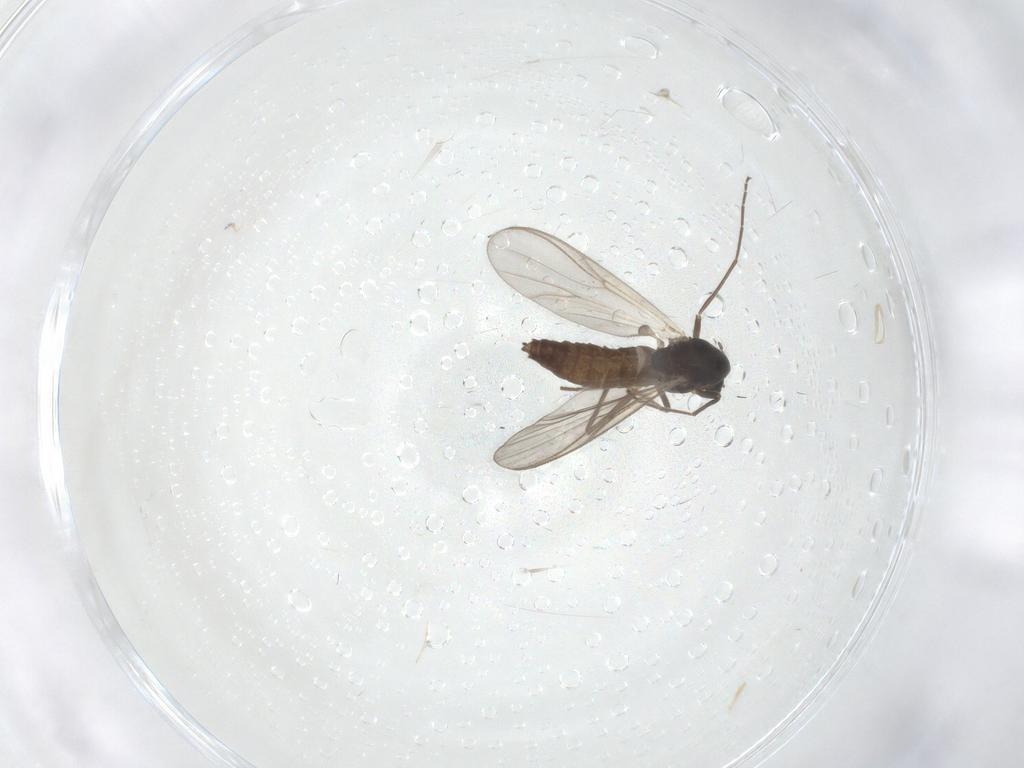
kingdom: Animalia
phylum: Arthropoda
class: Insecta
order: Diptera
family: Chironomidae
